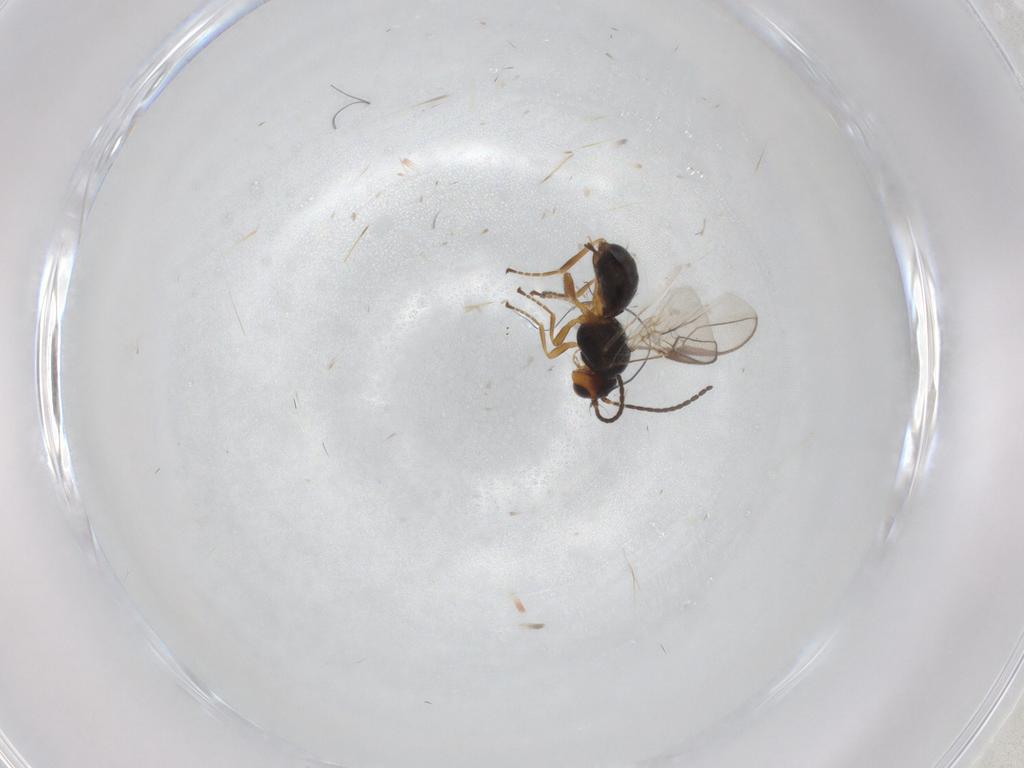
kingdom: Animalia
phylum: Arthropoda
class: Insecta
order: Hymenoptera
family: Braconidae
